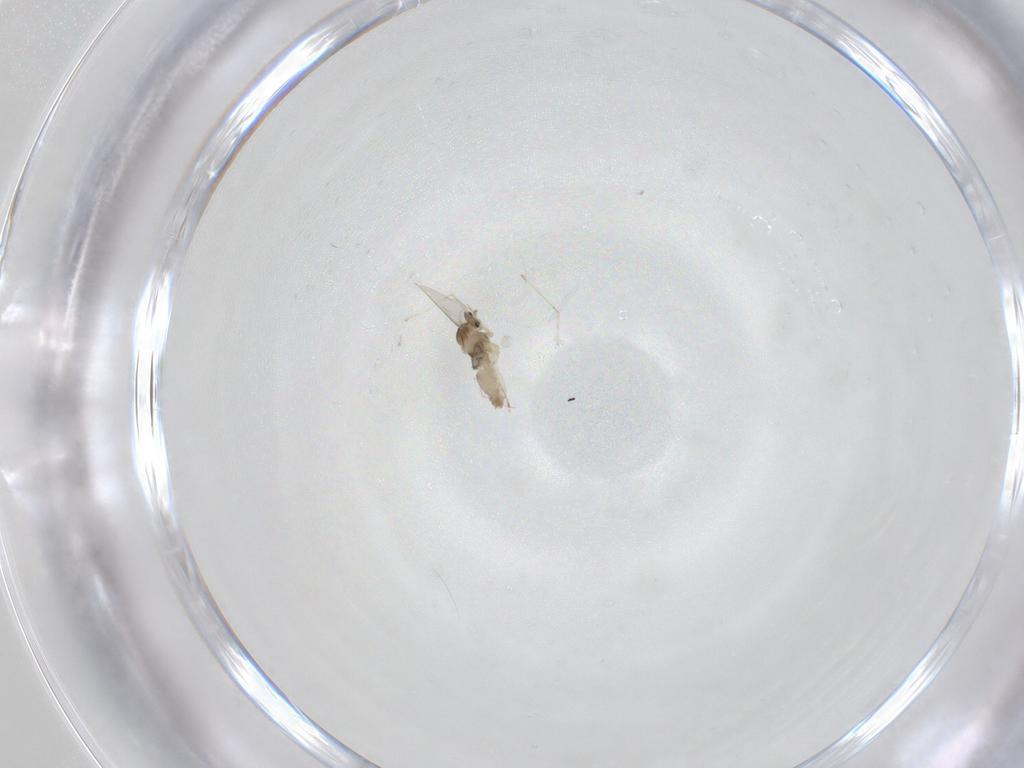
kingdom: Animalia
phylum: Arthropoda
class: Insecta
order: Diptera
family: Cecidomyiidae
